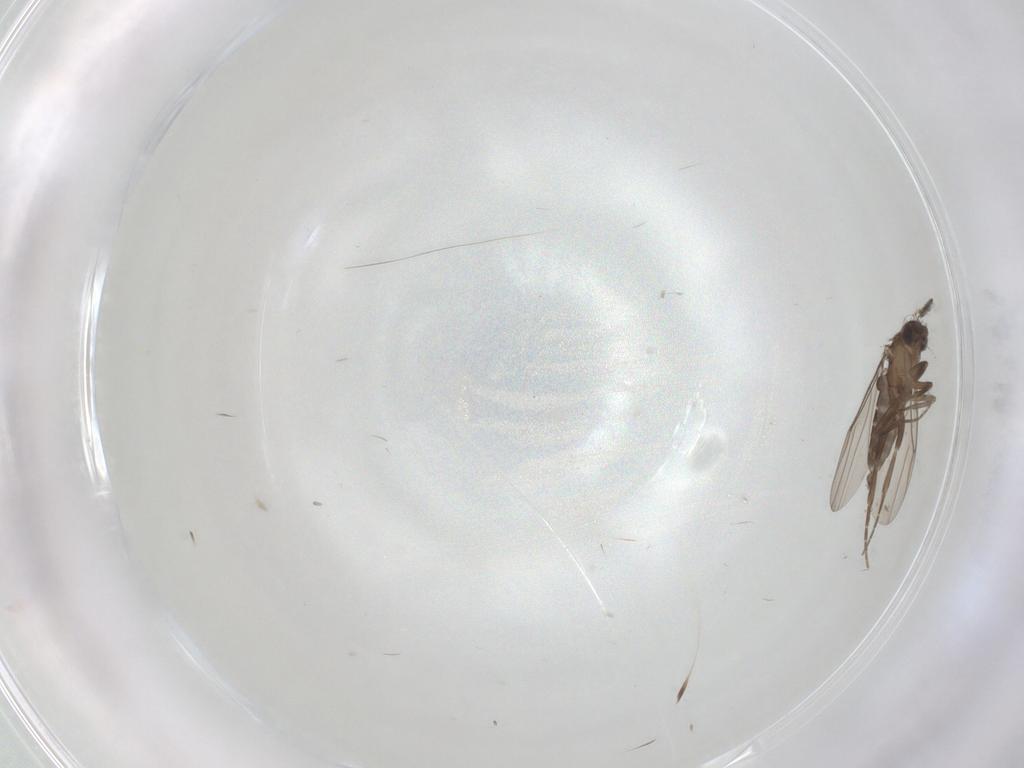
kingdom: Animalia
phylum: Arthropoda
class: Insecta
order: Diptera
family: Phoridae
